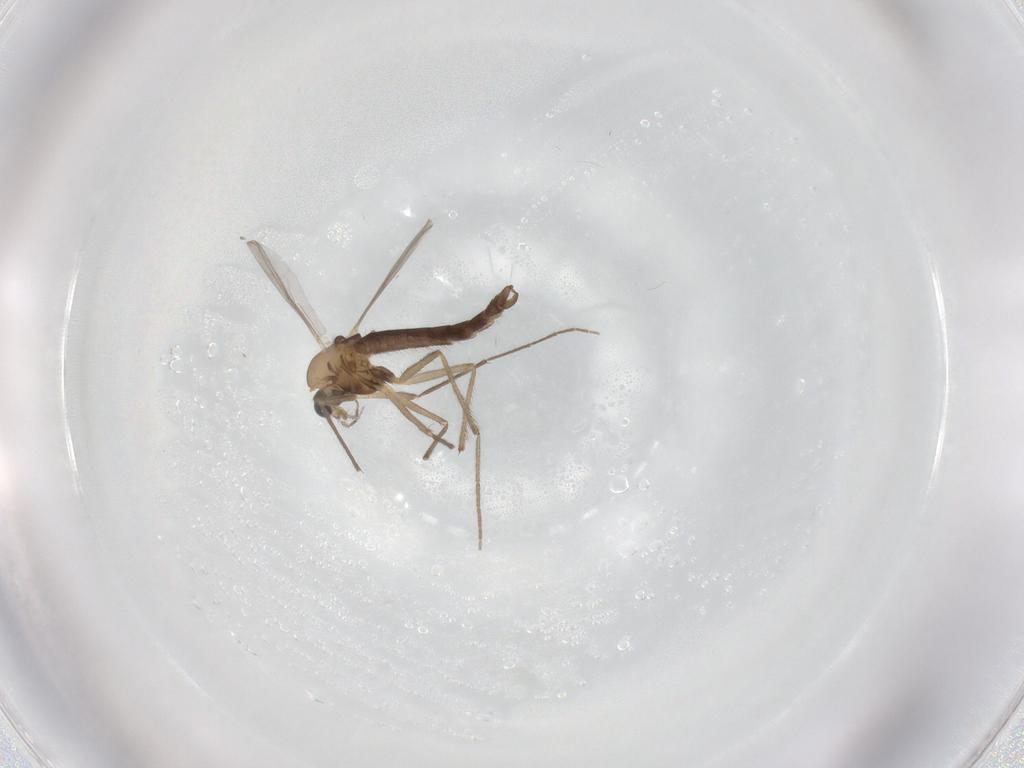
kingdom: Animalia
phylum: Arthropoda
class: Insecta
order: Diptera
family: Chironomidae
